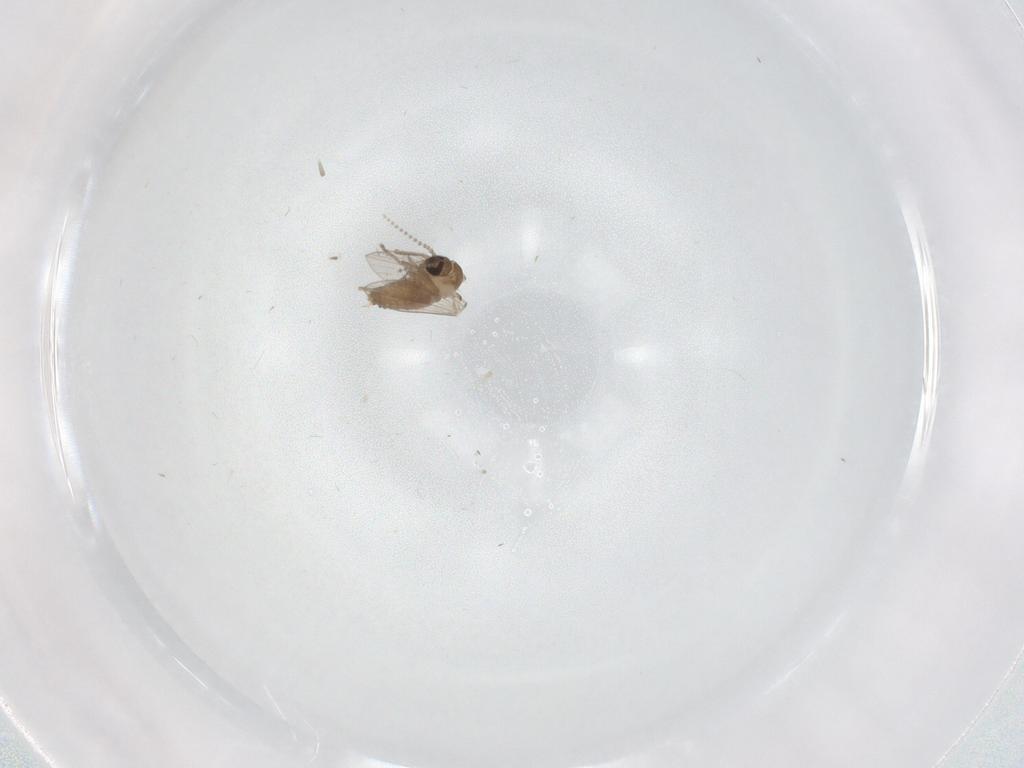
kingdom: Animalia
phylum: Arthropoda
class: Insecta
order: Diptera
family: Psychodidae
